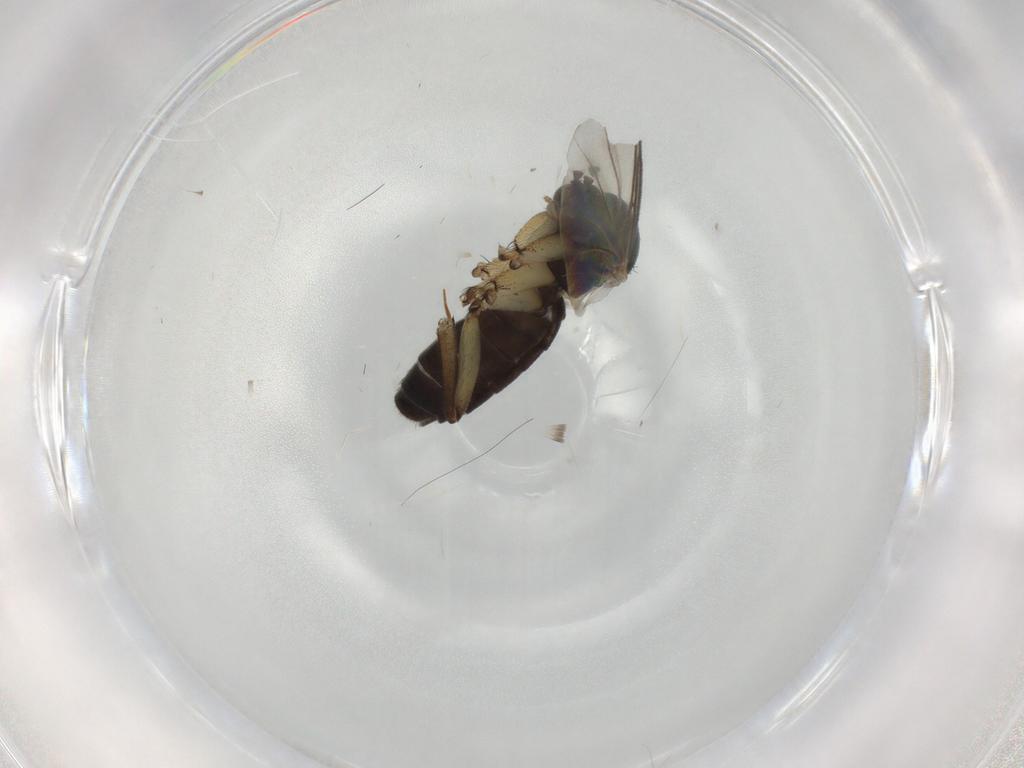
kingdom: Animalia
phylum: Arthropoda
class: Insecta
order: Diptera
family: Mycetophilidae
